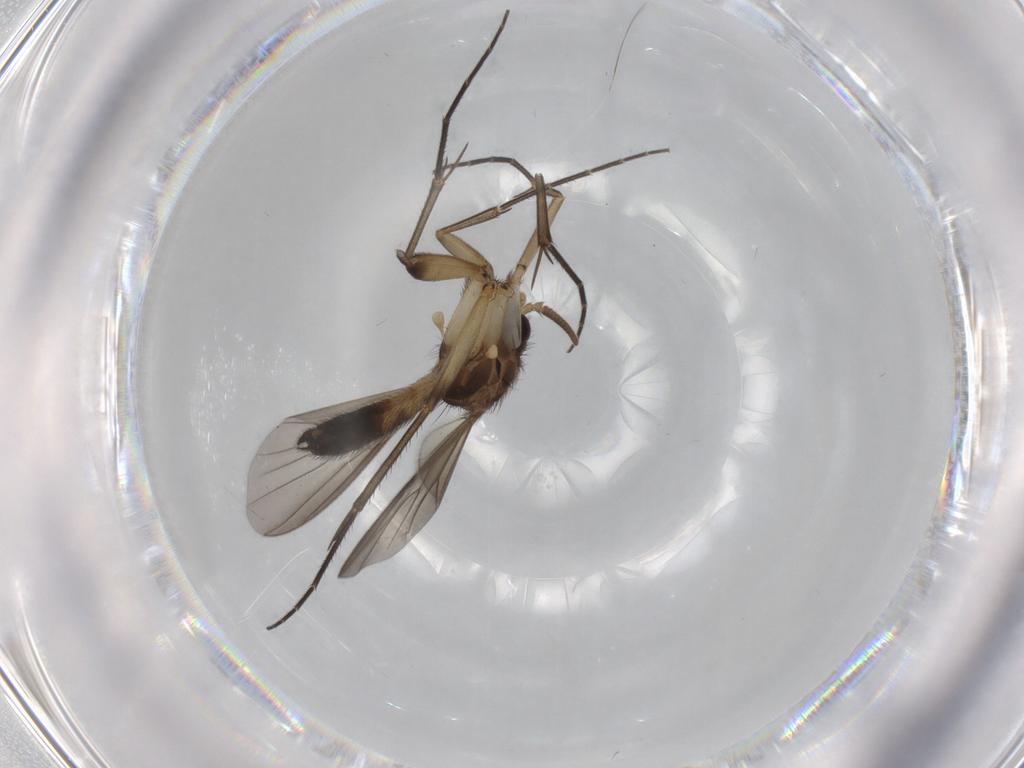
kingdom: Animalia
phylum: Arthropoda
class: Insecta
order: Diptera
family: Mycetophilidae
